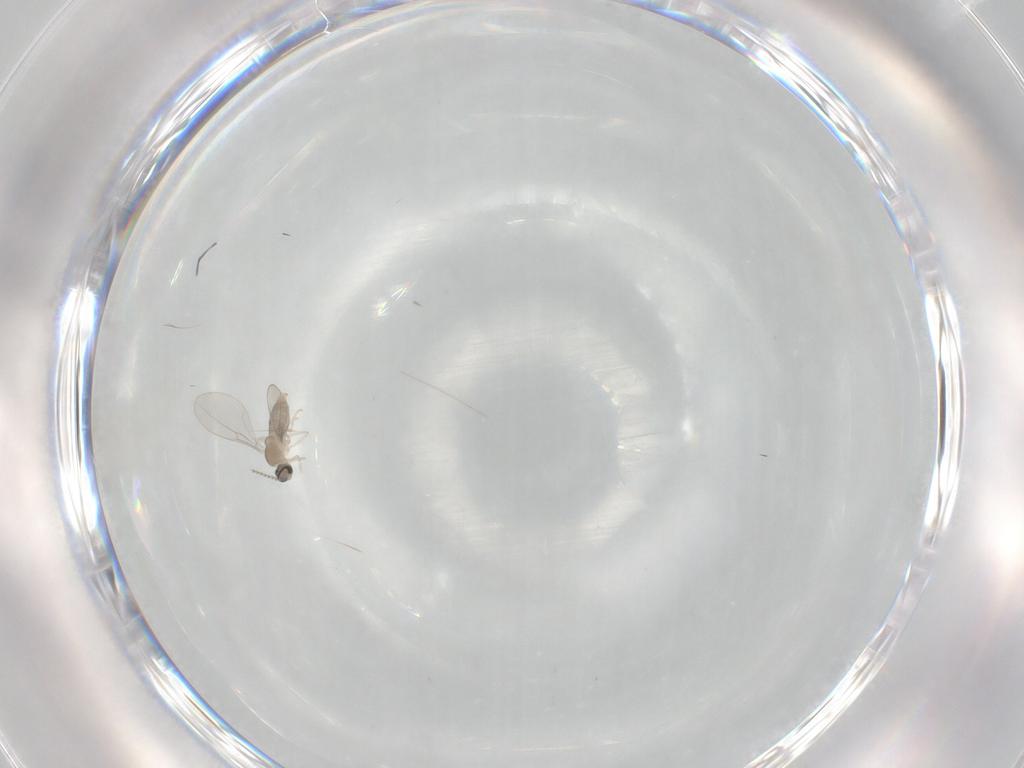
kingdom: Animalia
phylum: Arthropoda
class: Insecta
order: Diptera
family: Cecidomyiidae
